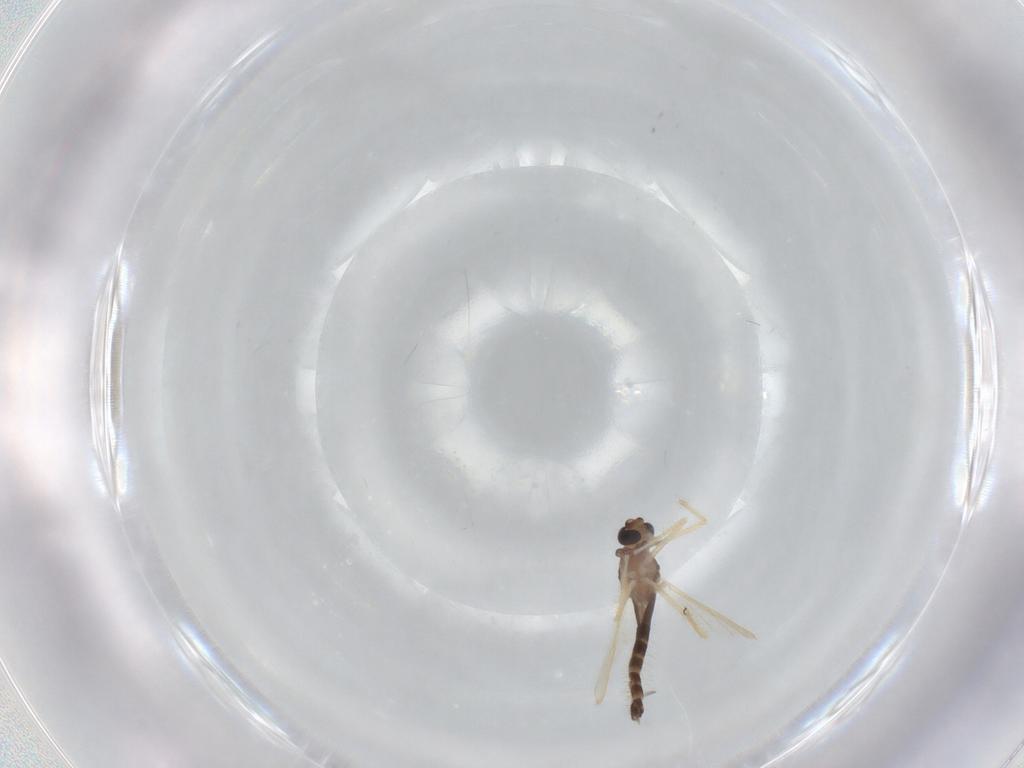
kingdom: Animalia
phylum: Arthropoda
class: Insecta
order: Diptera
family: Chironomidae
